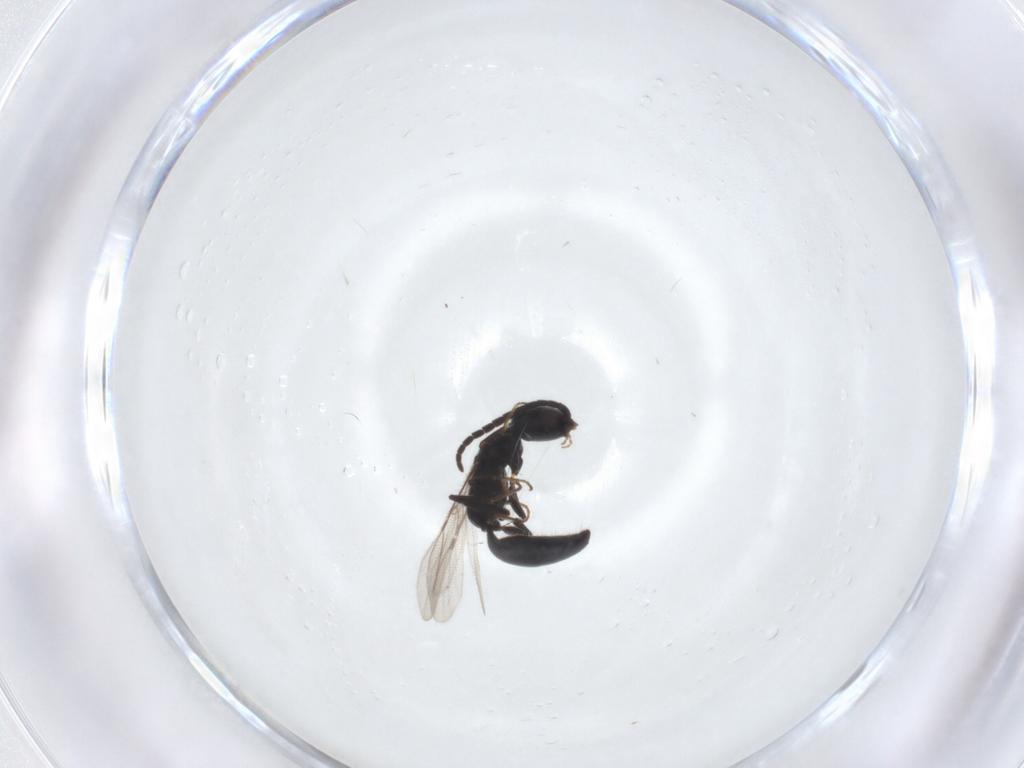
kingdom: Animalia
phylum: Arthropoda
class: Insecta
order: Hymenoptera
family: Bethylidae
